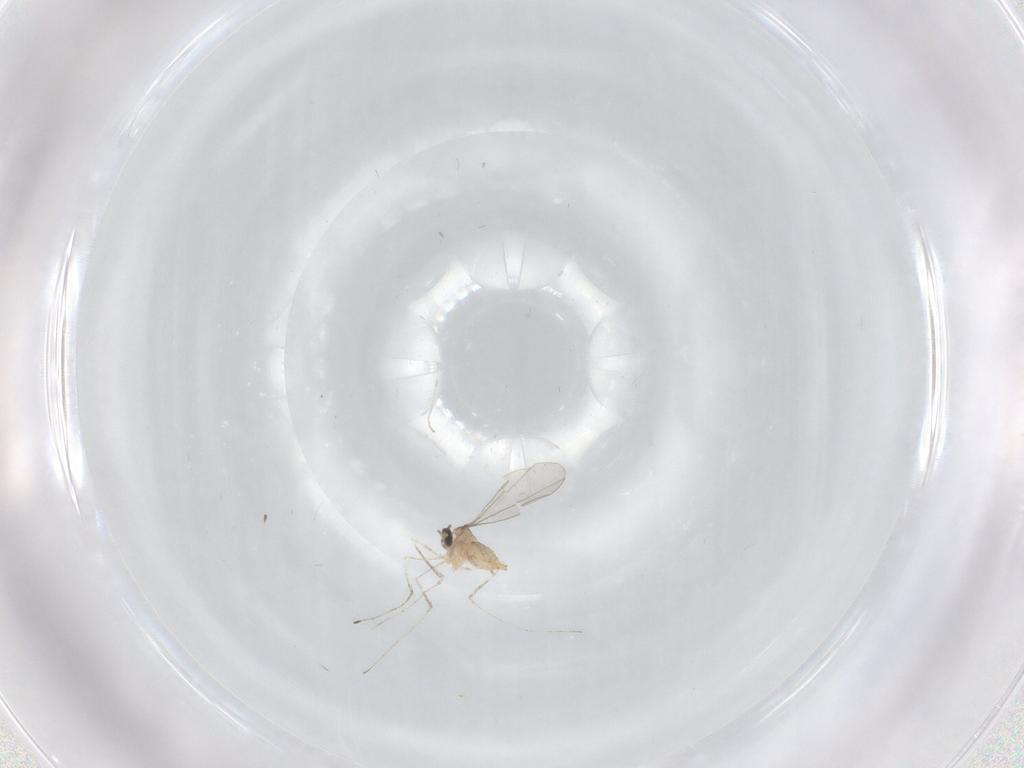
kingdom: Animalia
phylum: Arthropoda
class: Insecta
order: Diptera
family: Cecidomyiidae
